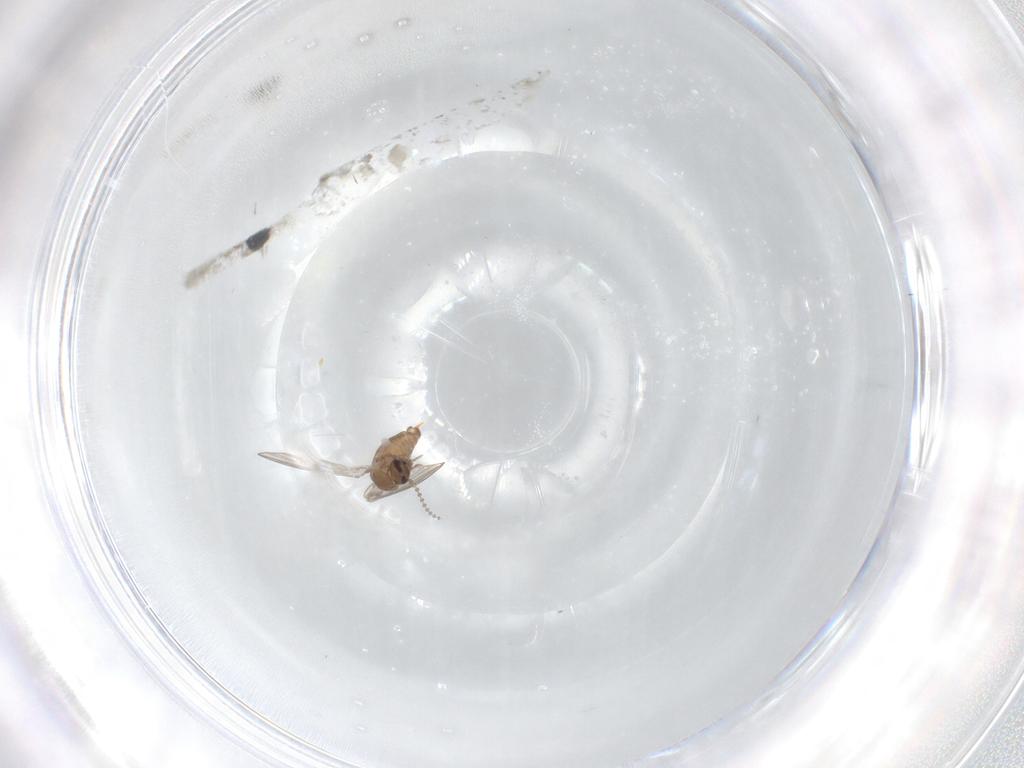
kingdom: Animalia
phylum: Arthropoda
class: Insecta
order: Diptera
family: Psychodidae
